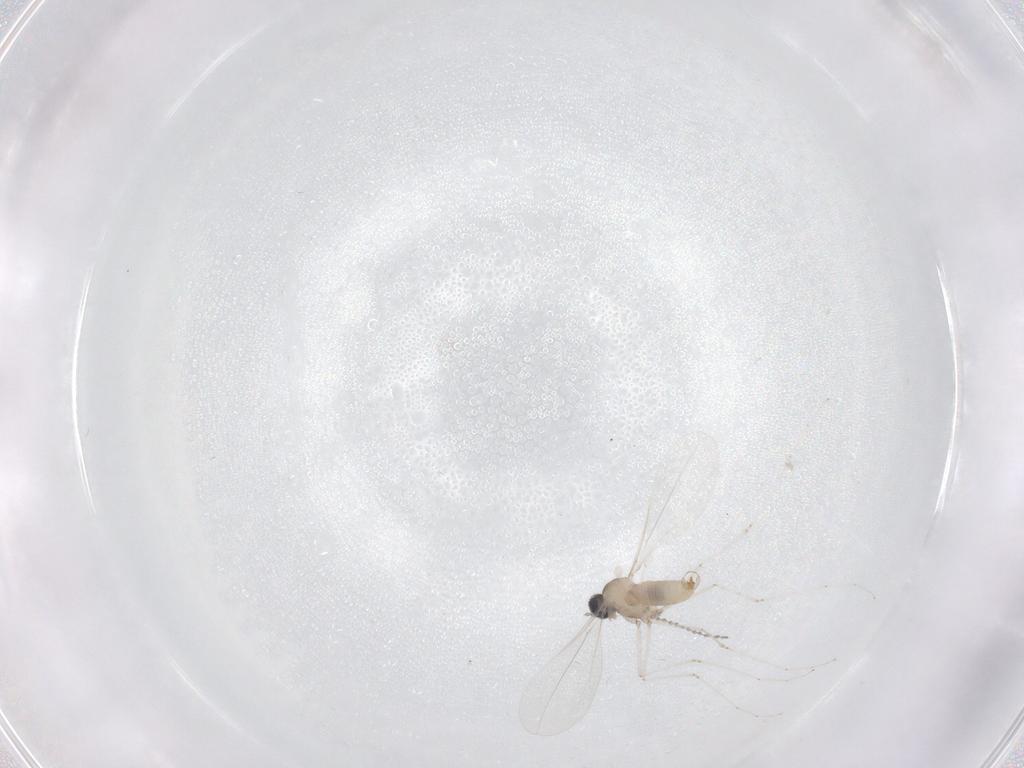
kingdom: Animalia
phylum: Arthropoda
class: Insecta
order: Diptera
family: Cecidomyiidae
